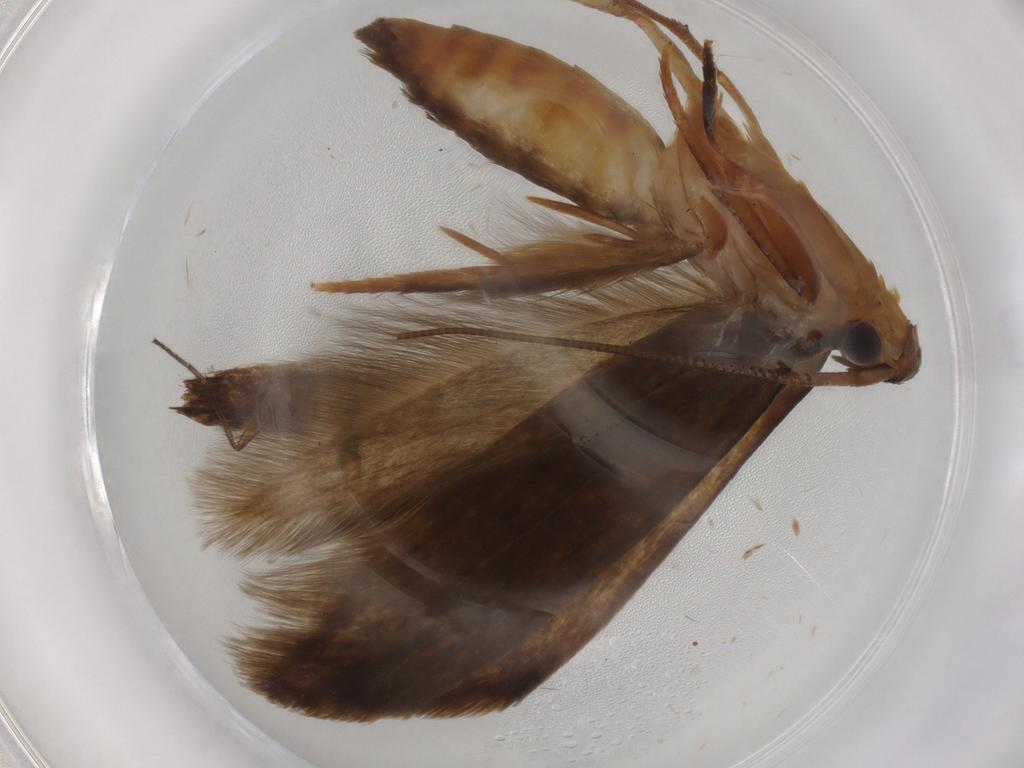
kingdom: Animalia
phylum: Arthropoda
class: Insecta
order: Lepidoptera
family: Tineidae
